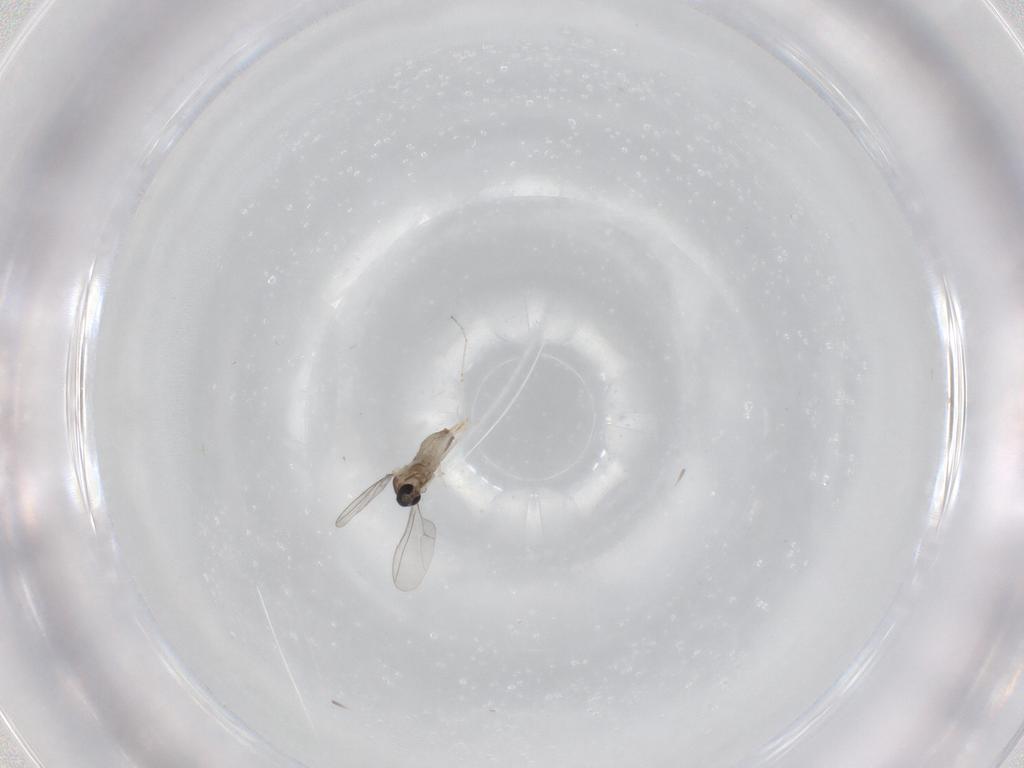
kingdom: Animalia
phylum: Arthropoda
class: Insecta
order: Diptera
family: Cecidomyiidae
